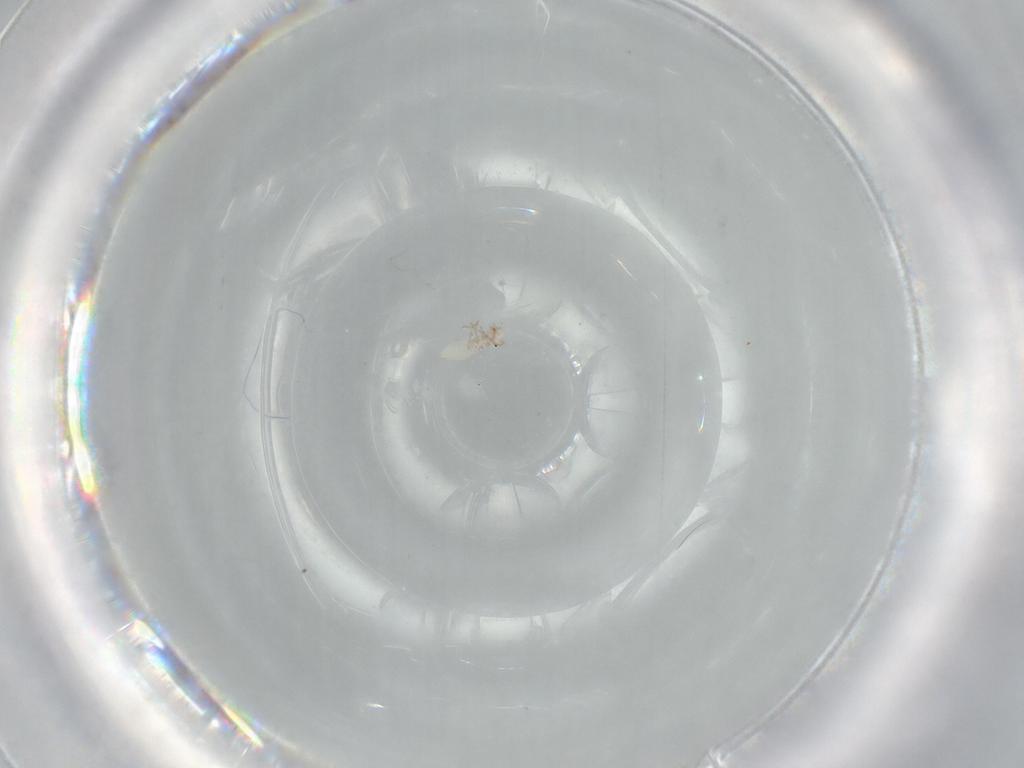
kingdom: Animalia
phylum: Arthropoda
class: Insecta
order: Psocodea
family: Ectopsocidae
